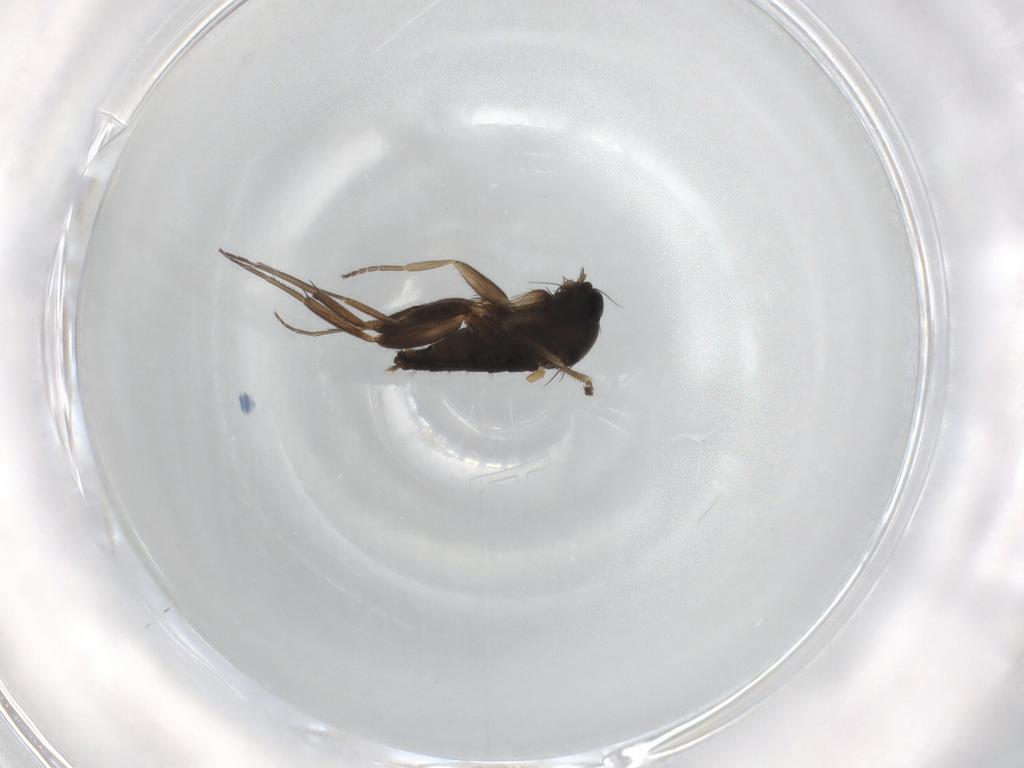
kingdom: Animalia
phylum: Arthropoda
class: Insecta
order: Diptera
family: Phoridae
